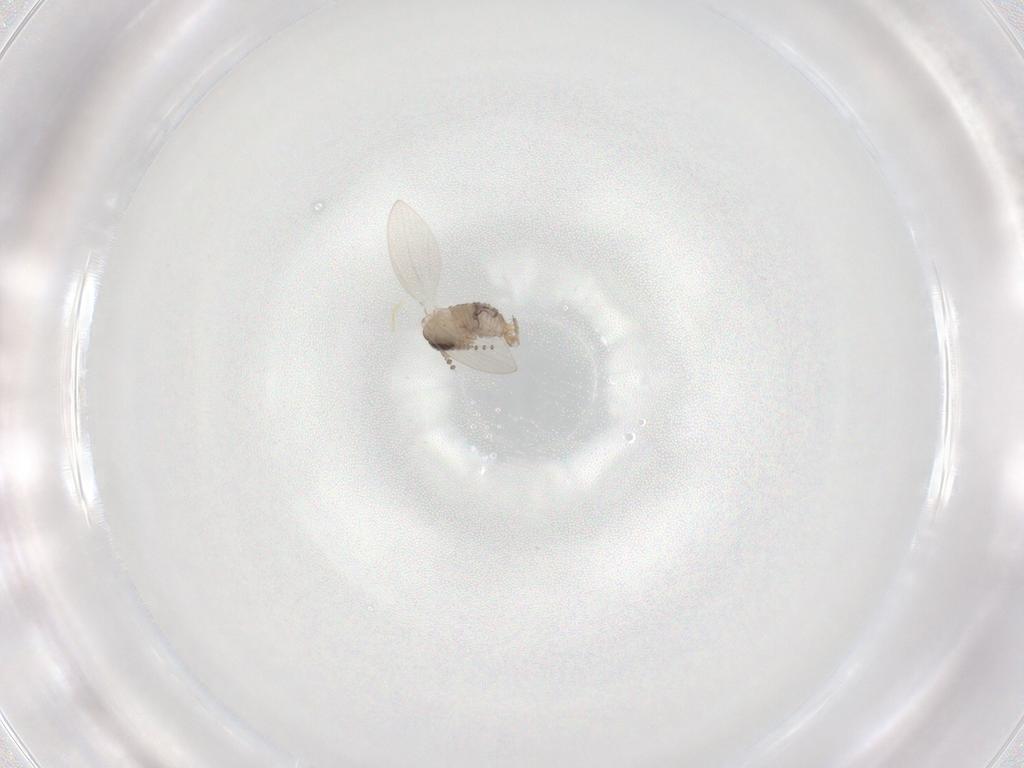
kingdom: Animalia
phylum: Arthropoda
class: Insecta
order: Diptera
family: Psychodidae
